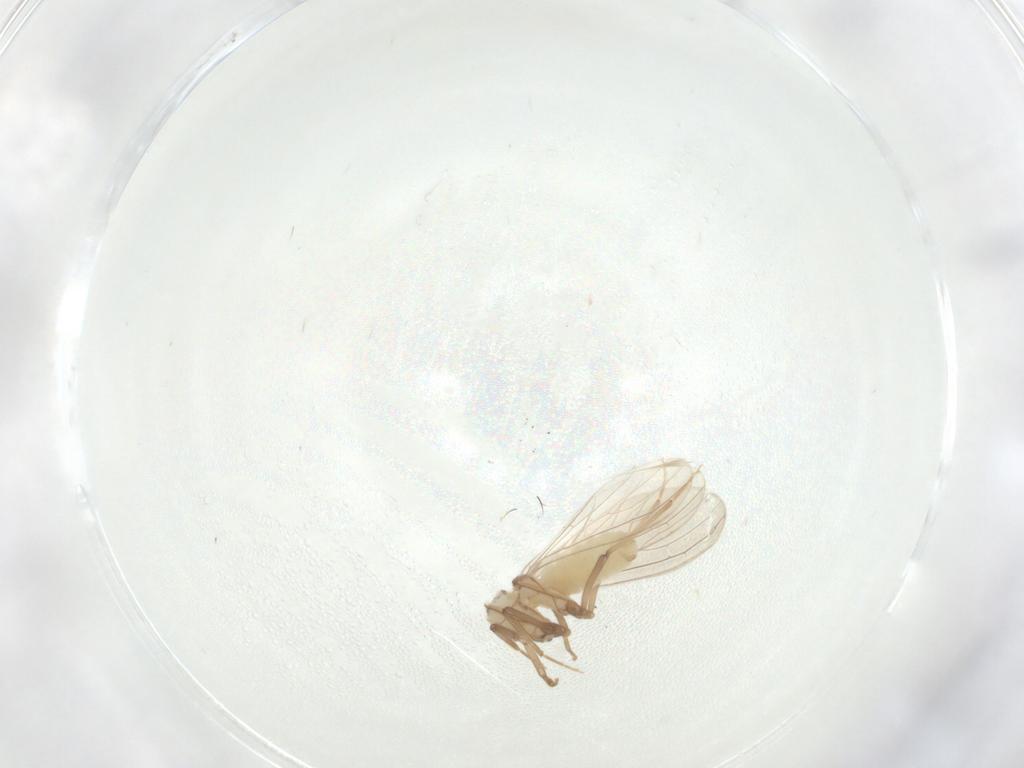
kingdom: Animalia
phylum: Arthropoda
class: Insecta
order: Neuroptera
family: Coniopterygidae
